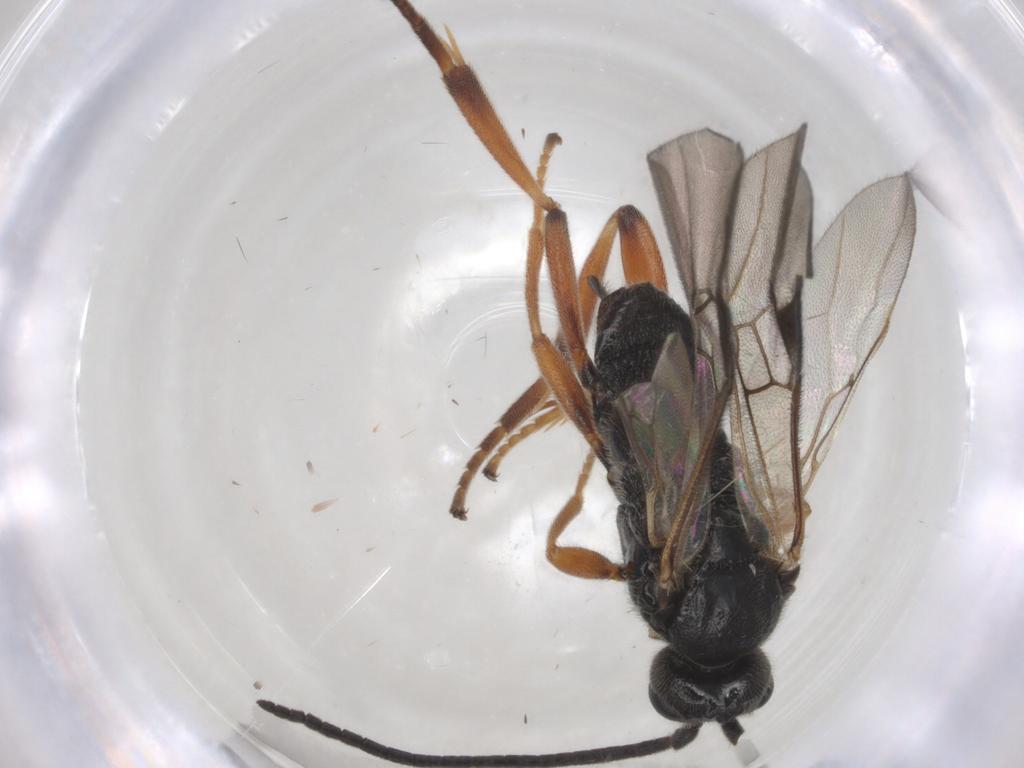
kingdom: Animalia
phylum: Arthropoda
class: Insecta
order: Hymenoptera
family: Braconidae
